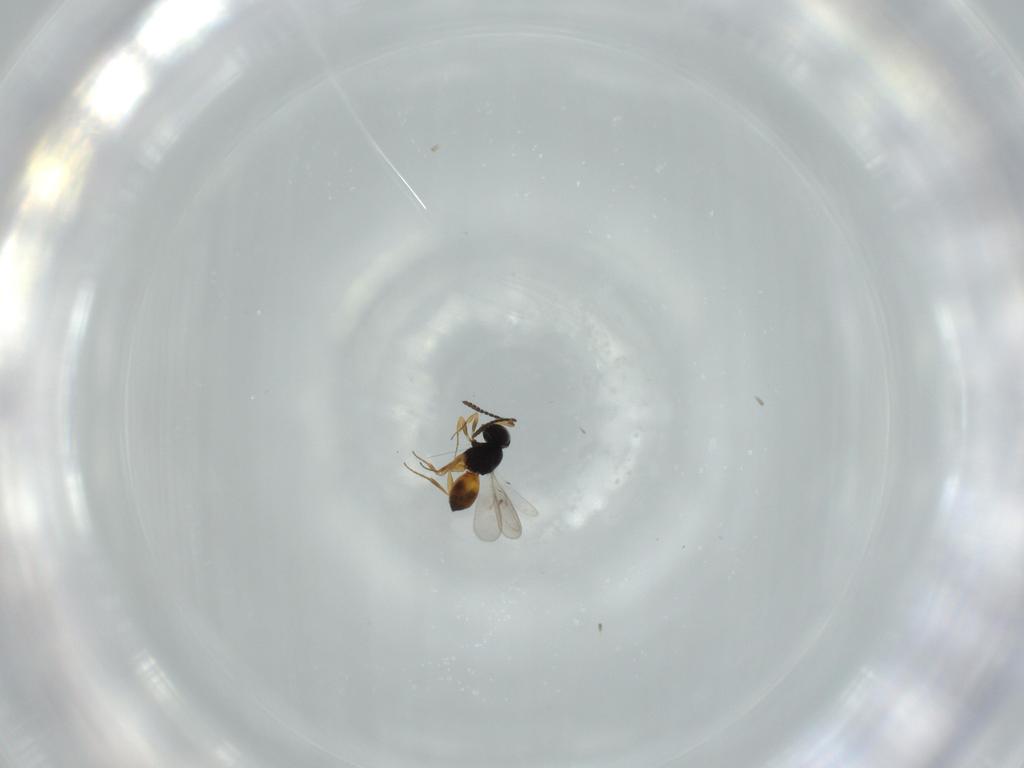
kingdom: Animalia
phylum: Arthropoda
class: Insecta
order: Hymenoptera
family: Scelionidae
